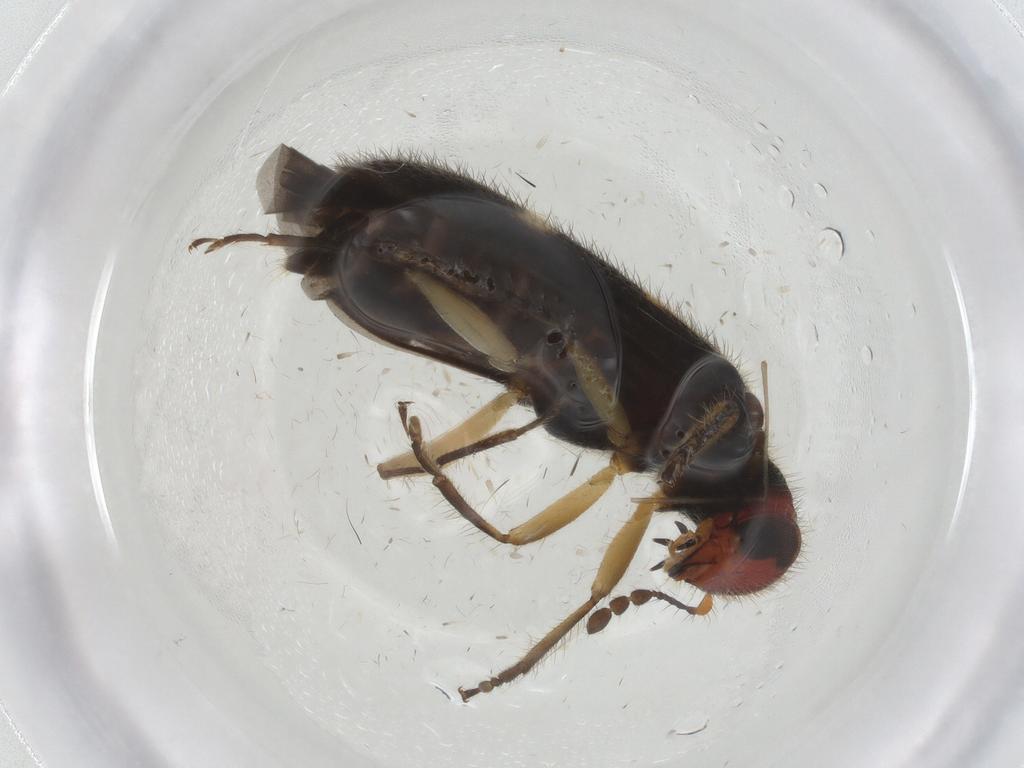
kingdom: Animalia
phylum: Arthropoda
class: Insecta
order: Coleoptera
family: Cleridae
